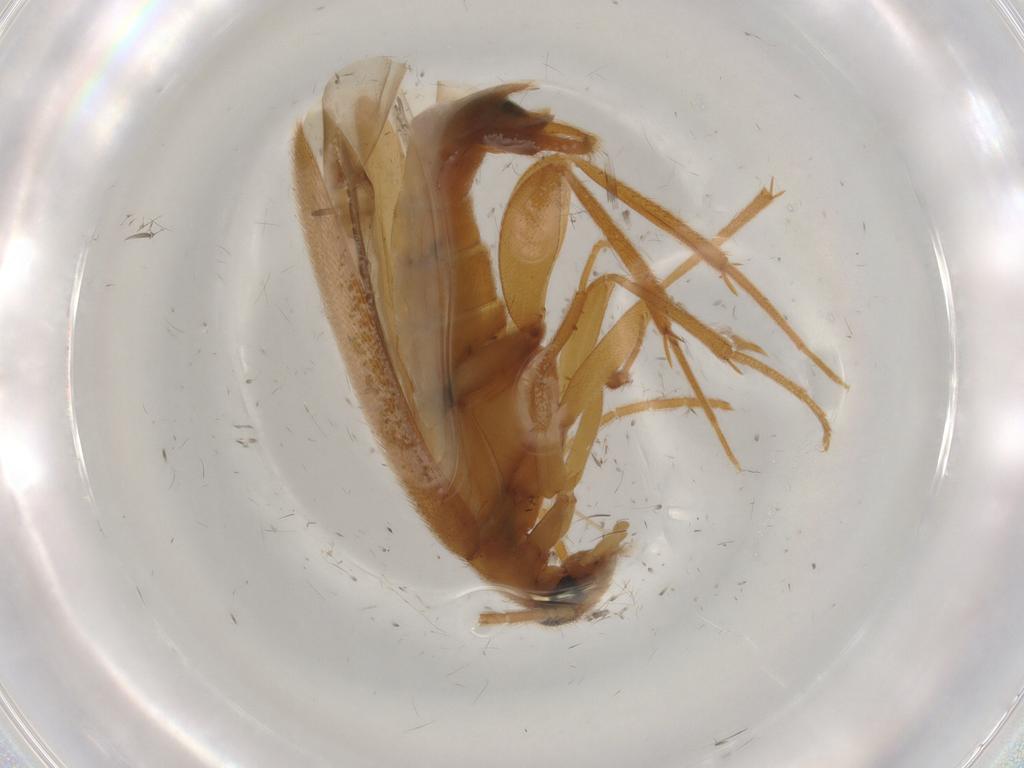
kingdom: Animalia
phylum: Arthropoda
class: Insecta
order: Coleoptera
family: Scraptiidae
